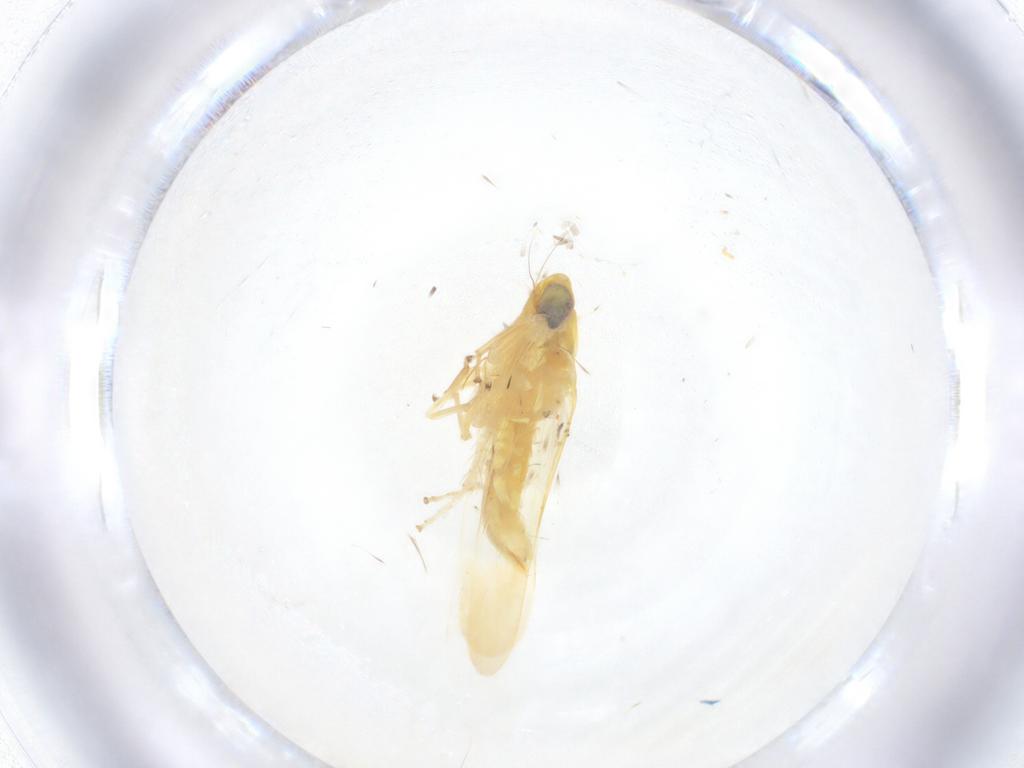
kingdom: Animalia
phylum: Arthropoda
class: Insecta
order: Hemiptera
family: Cicadellidae
